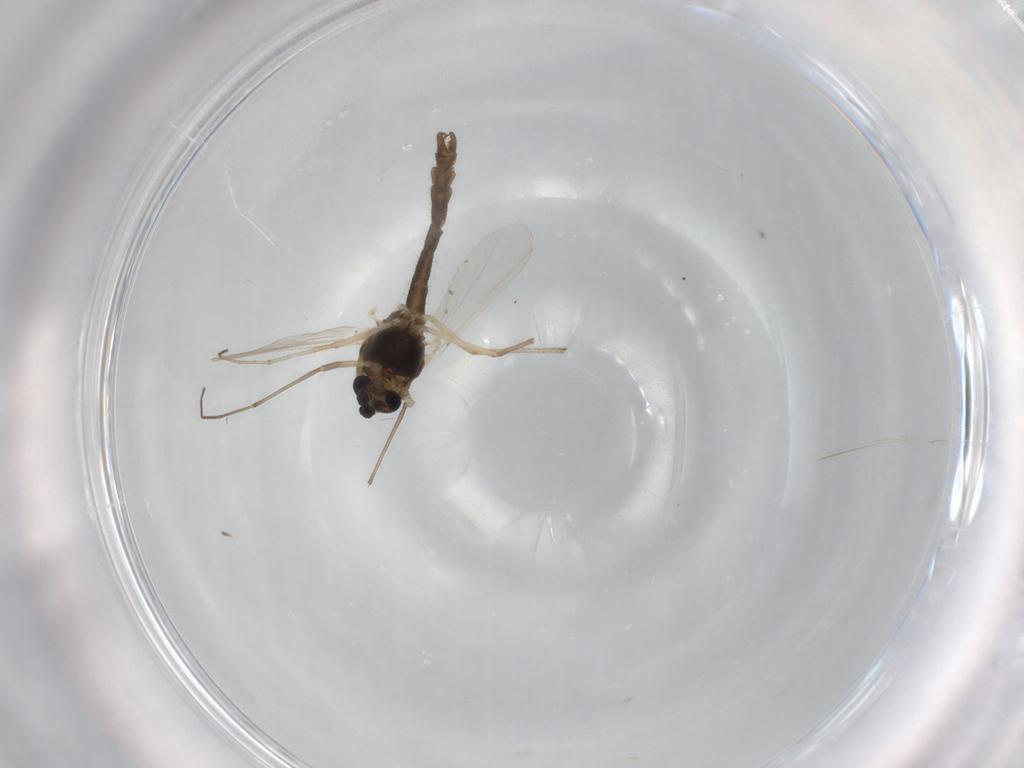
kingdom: Animalia
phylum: Arthropoda
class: Insecta
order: Diptera
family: Chironomidae
